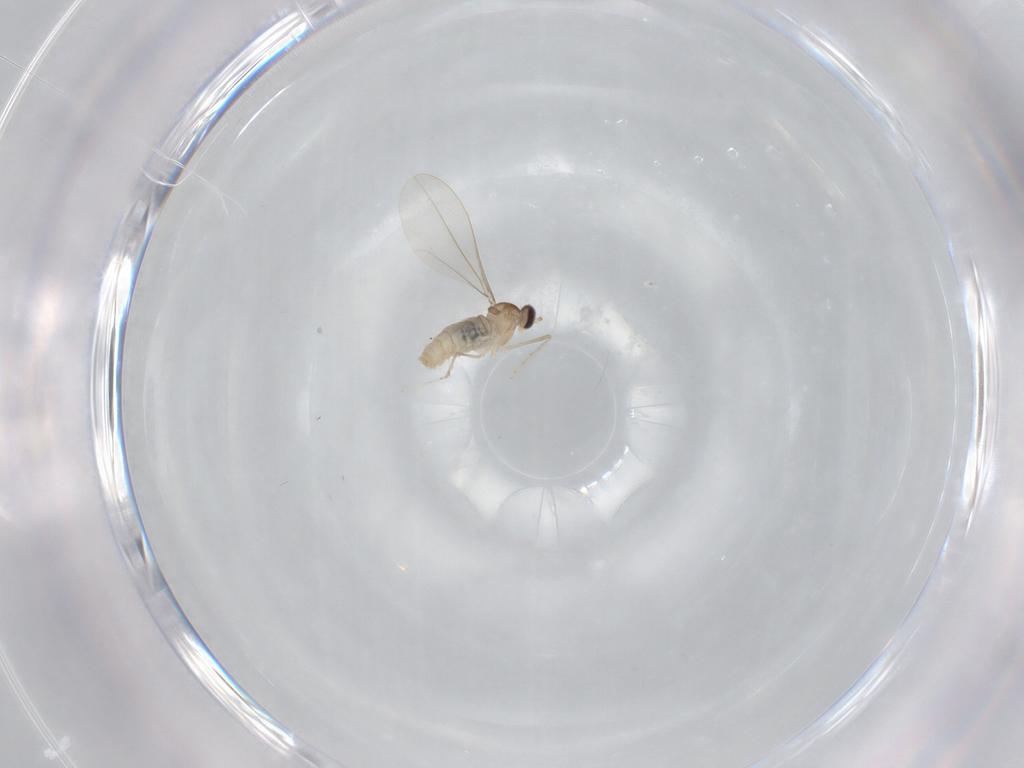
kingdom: Animalia
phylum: Arthropoda
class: Insecta
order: Diptera
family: Cecidomyiidae
